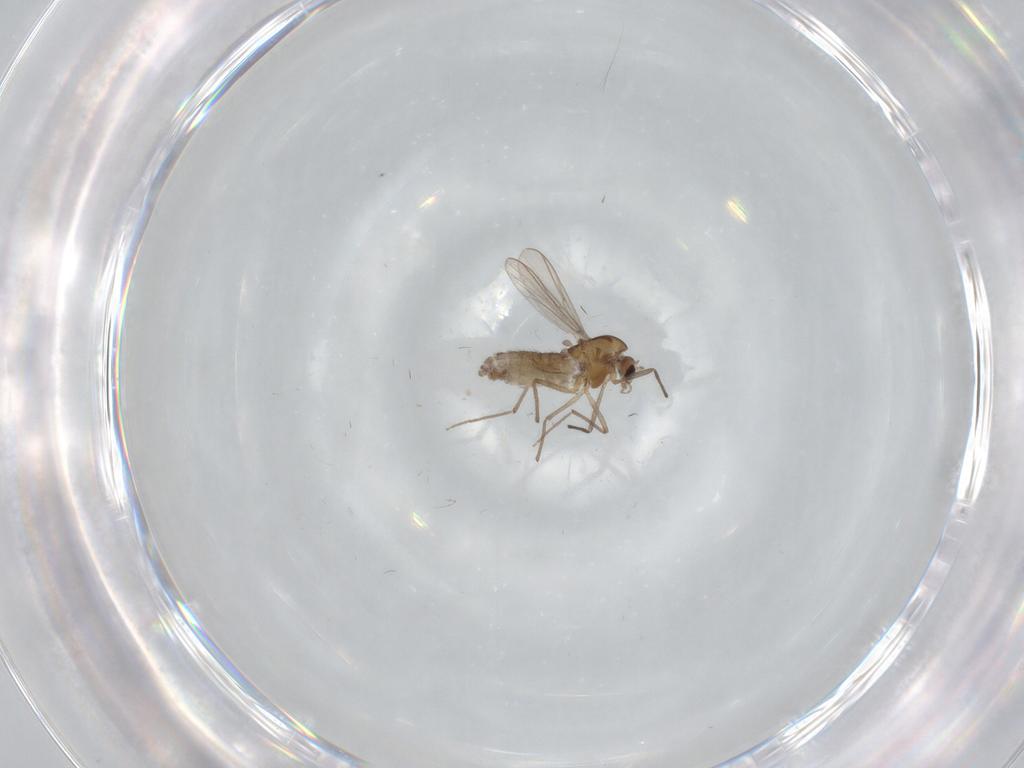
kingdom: Animalia
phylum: Arthropoda
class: Insecta
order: Diptera
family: Chironomidae
